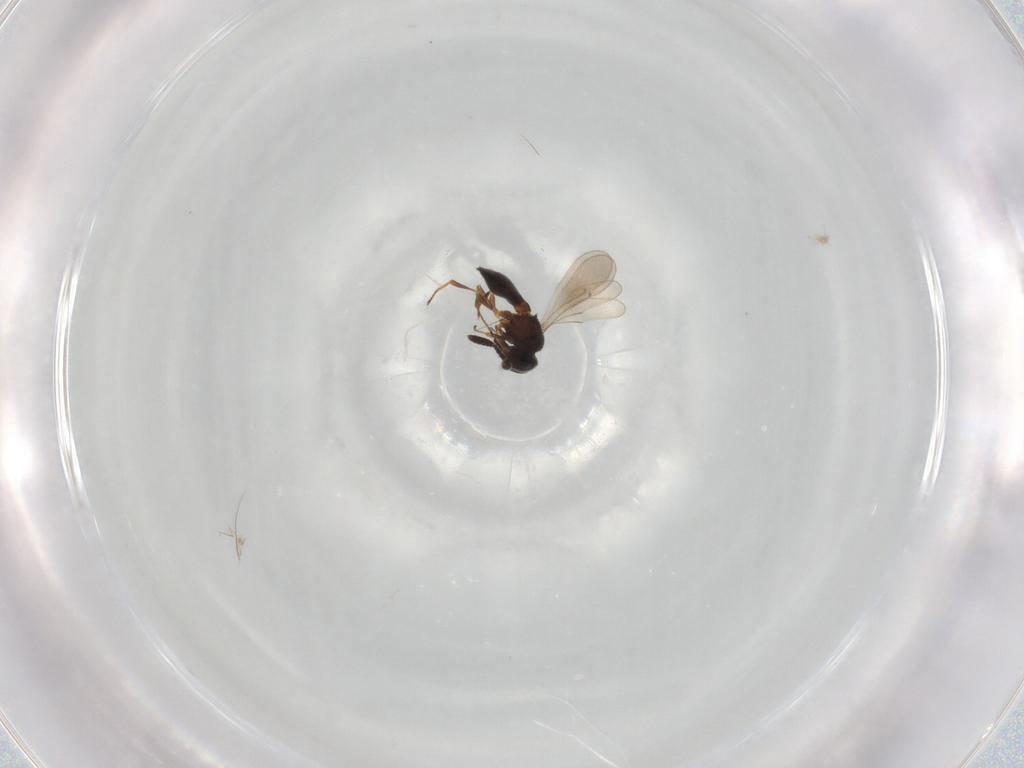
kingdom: Animalia
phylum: Arthropoda
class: Insecta
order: Hymenoptera
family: Scelionidae
